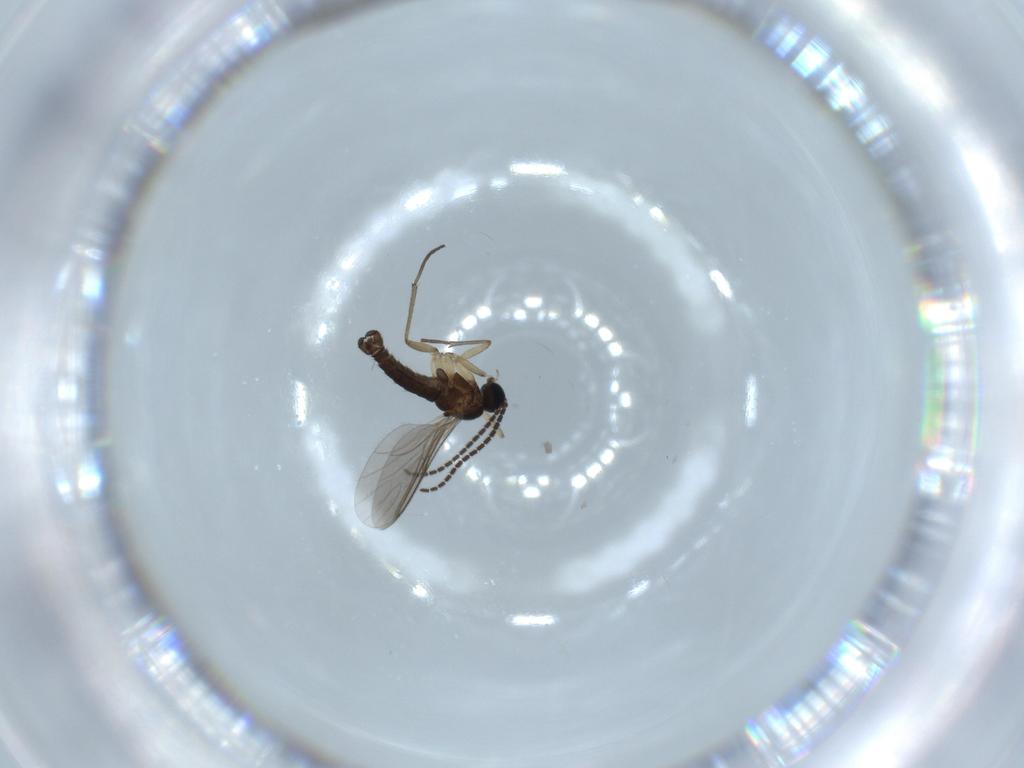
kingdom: Animalia
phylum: Arthropoda
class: Insecta
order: Diptera
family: Sciaridae
